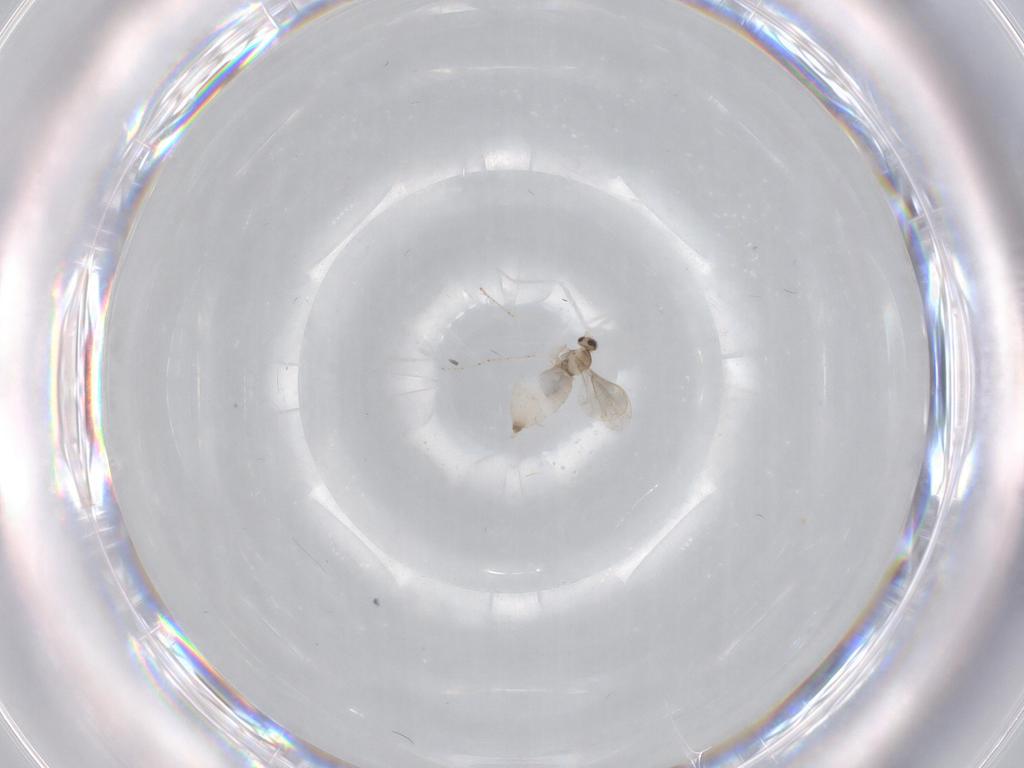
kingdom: Animalia
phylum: Arthropoda
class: Insecta
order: Diptera
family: Cecidomyiidae
